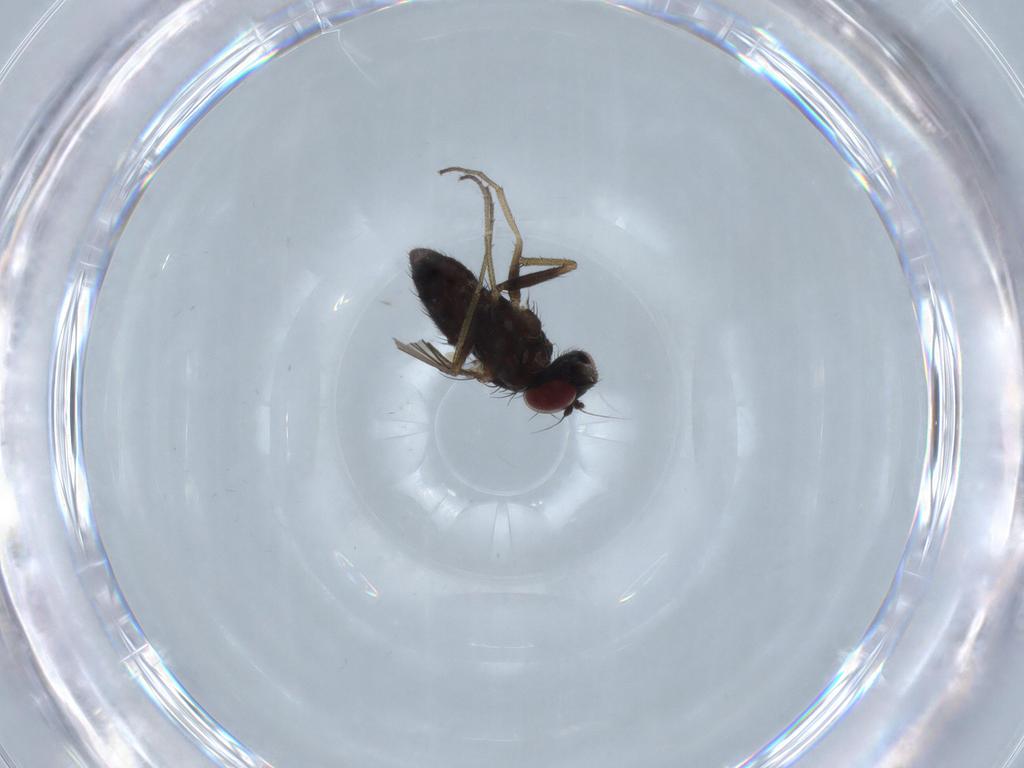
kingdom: Animalia
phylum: Arthropoda
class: Insecta
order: Diptera
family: Dolichopodidae
